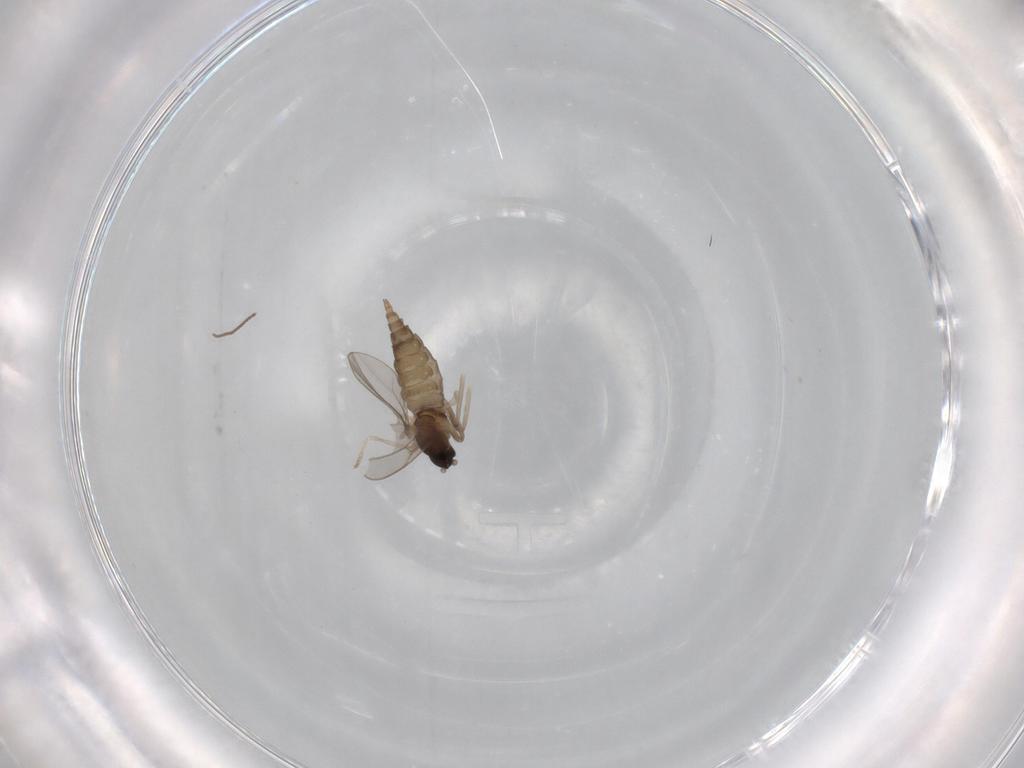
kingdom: Animalia
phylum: Arthropoda
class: Insecta
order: Diptera
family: Cecidomyiidae
